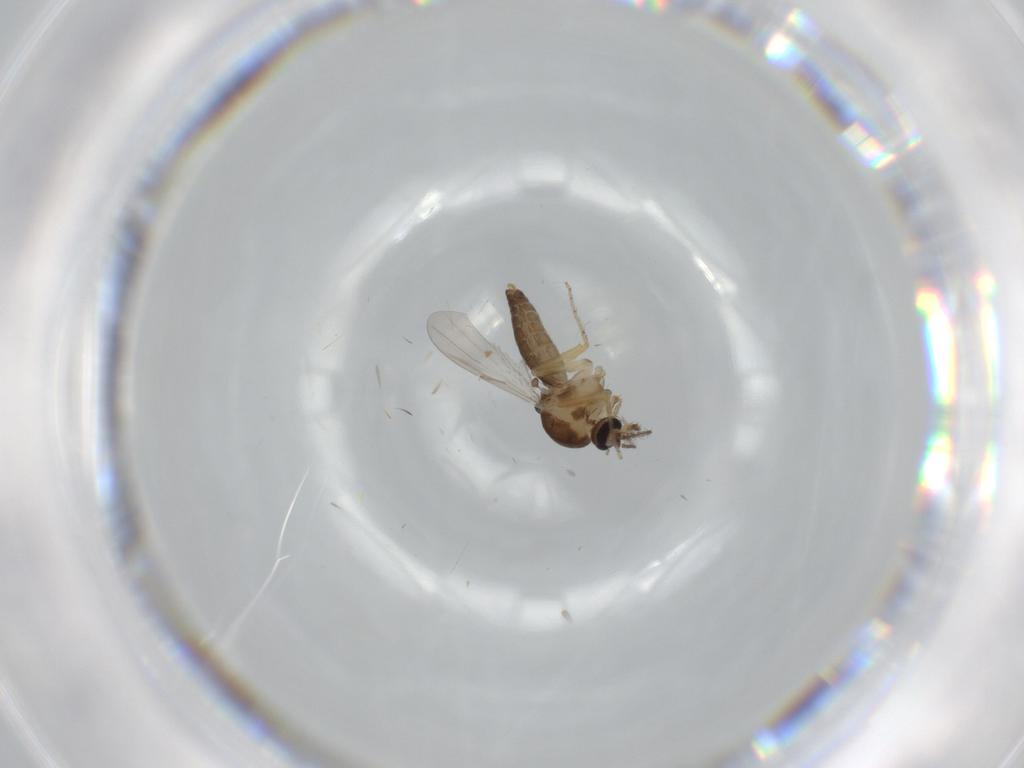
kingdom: Animalia
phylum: Arthropoda
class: Insecta
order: Diptera
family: Ceratopogonidae
